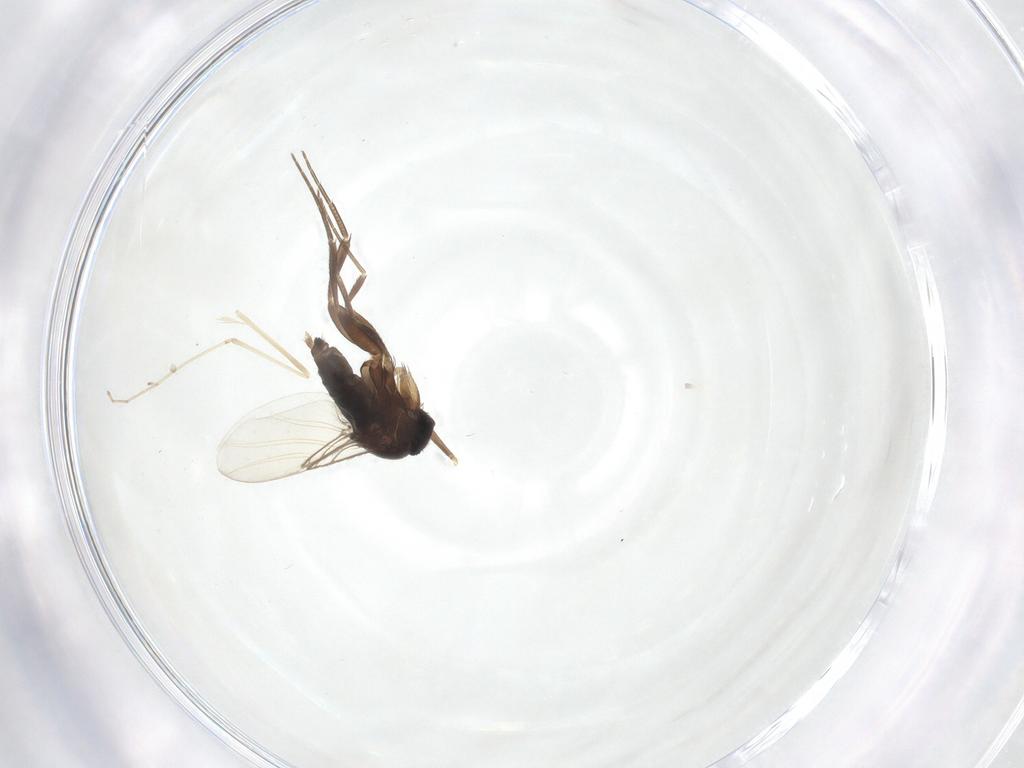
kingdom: Animalia
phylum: Arthropoda
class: Insecta
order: Diptera
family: Phoridae
